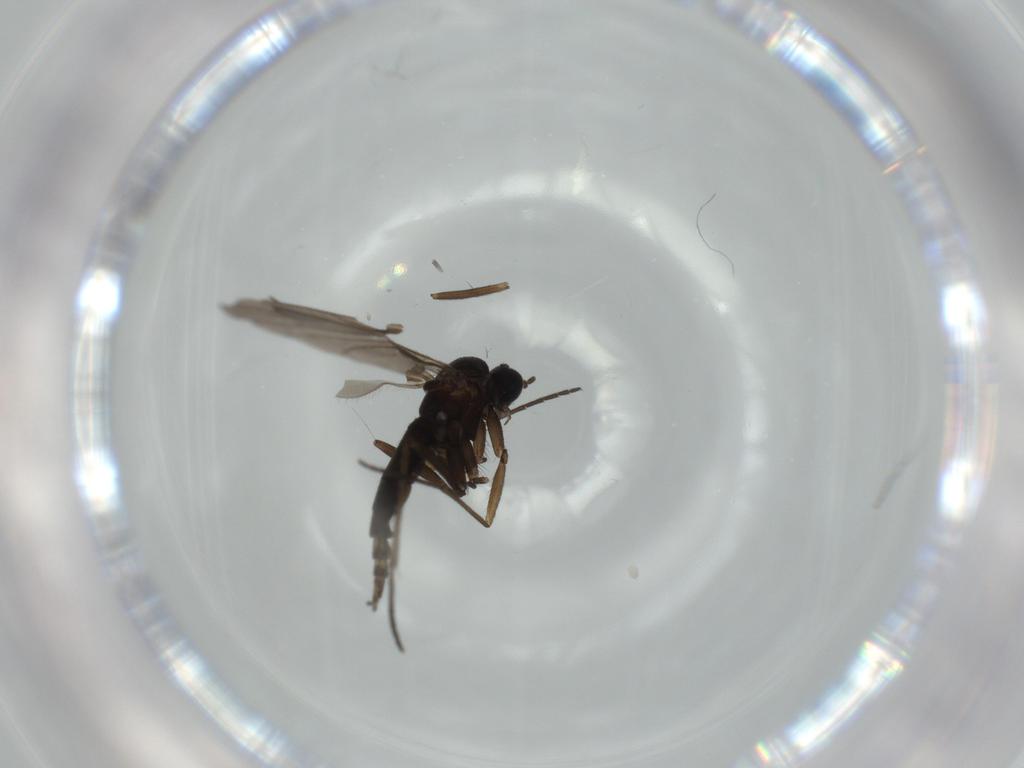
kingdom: Animalia
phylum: Arthropoda
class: Insecta
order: Diptera
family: Sciaridae
